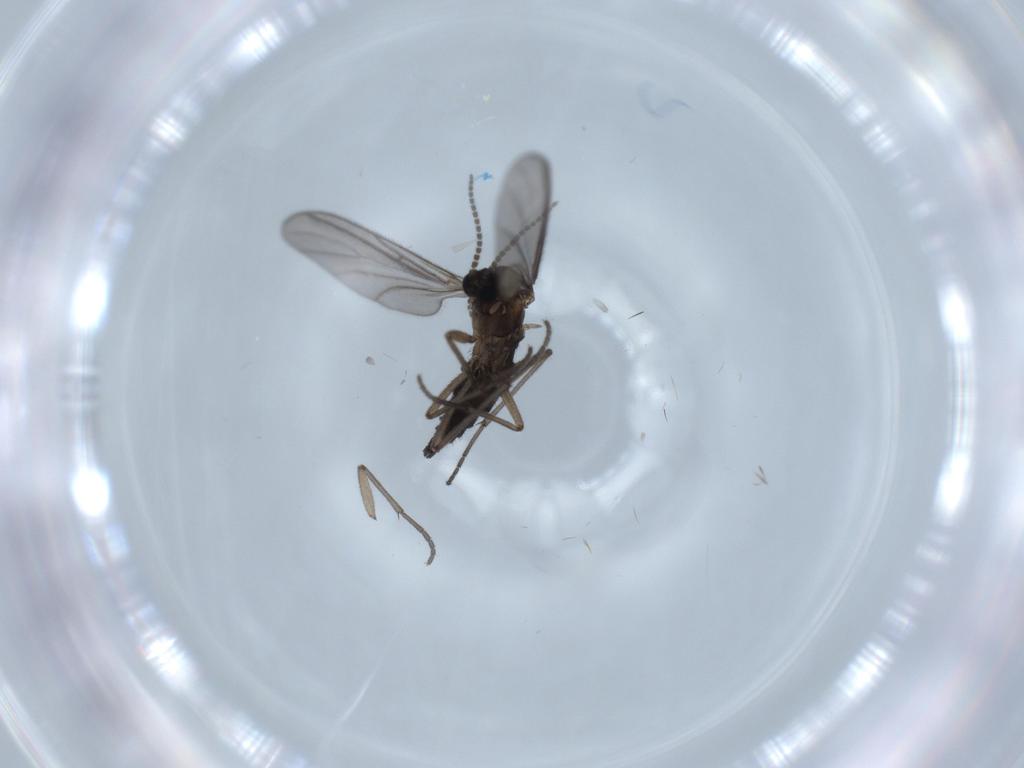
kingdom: Animalia
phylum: Arthropoda
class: Insecta
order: Diptera
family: Sciaridae
